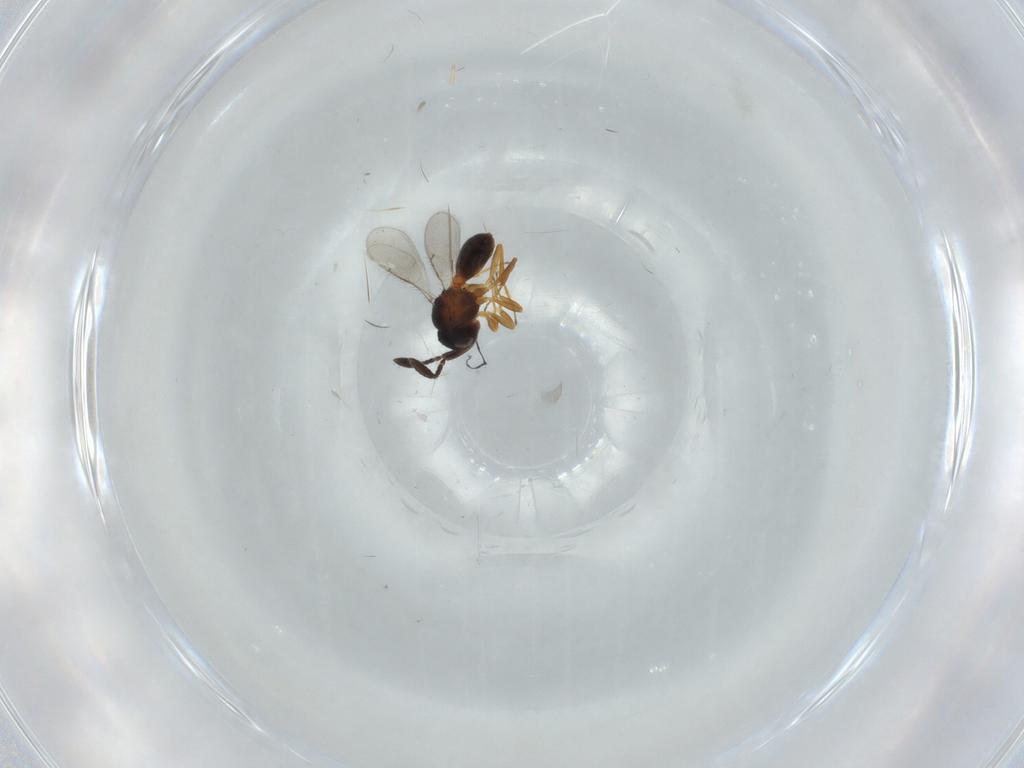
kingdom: Animalia
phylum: Arthropoda
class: Insecta
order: Hymenoptera
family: Scelionidae
